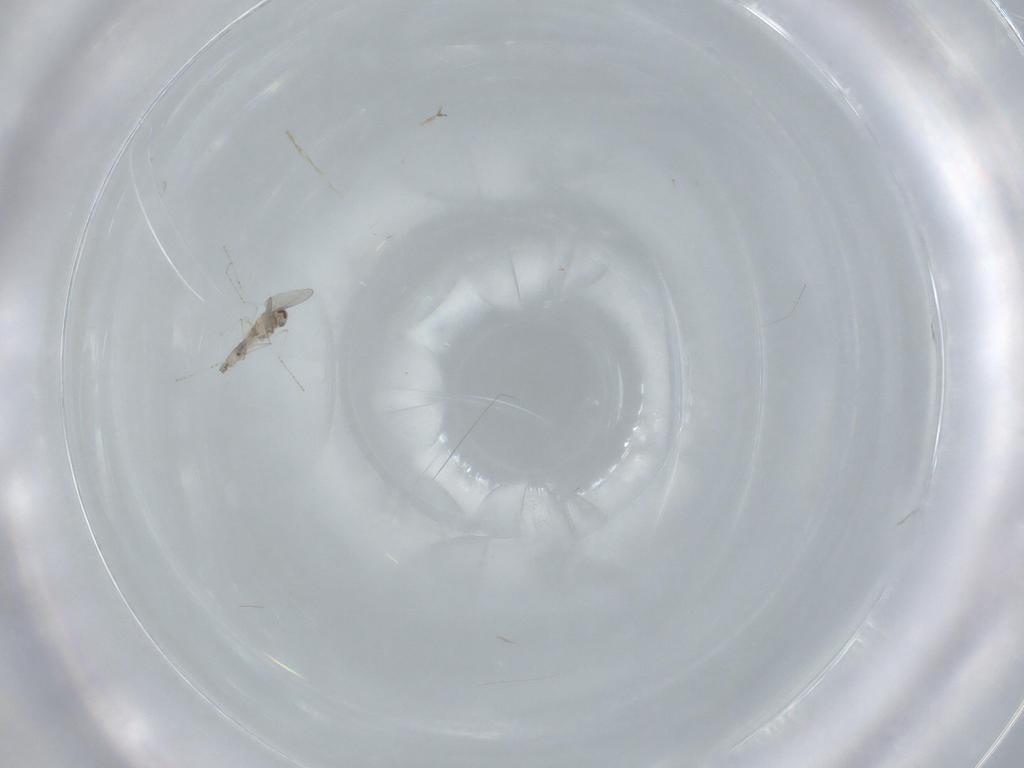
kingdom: Animalia
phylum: Arthropoda
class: Insecta
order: Diptera
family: Cecidomyiidae
